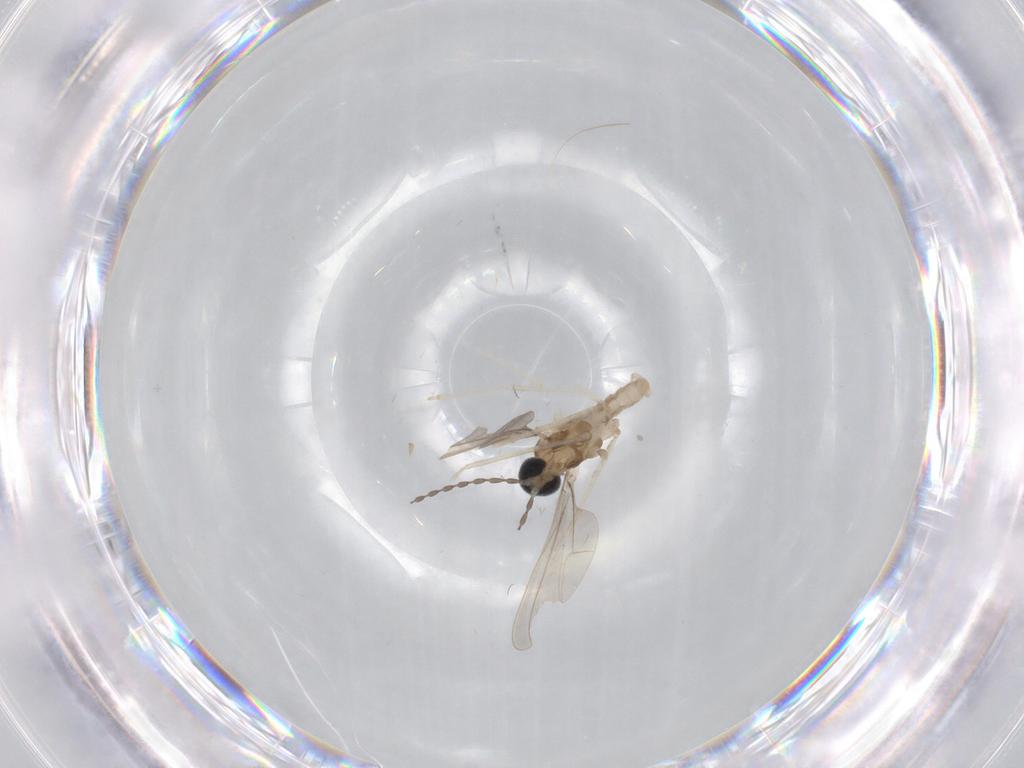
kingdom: Animalia
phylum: Arthropoda
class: Insecta
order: Diptera
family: Cecidomyiidae
